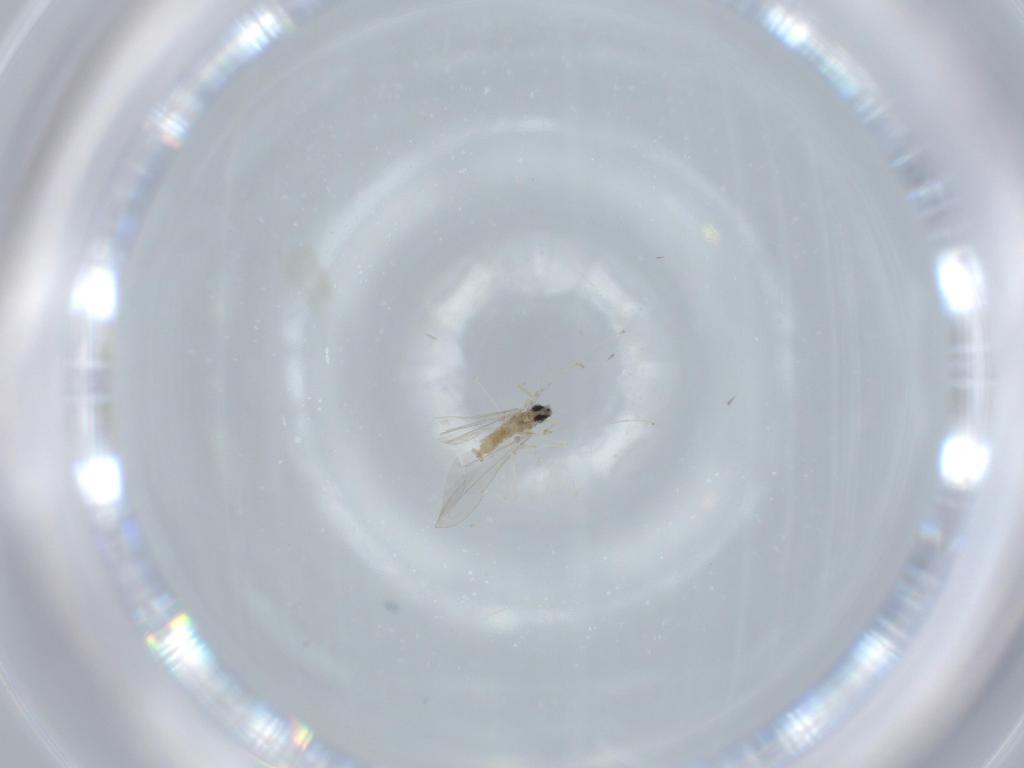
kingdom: Animalia
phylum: Arthropoda
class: Insecta
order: Diptera
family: Cecidomyiidae
